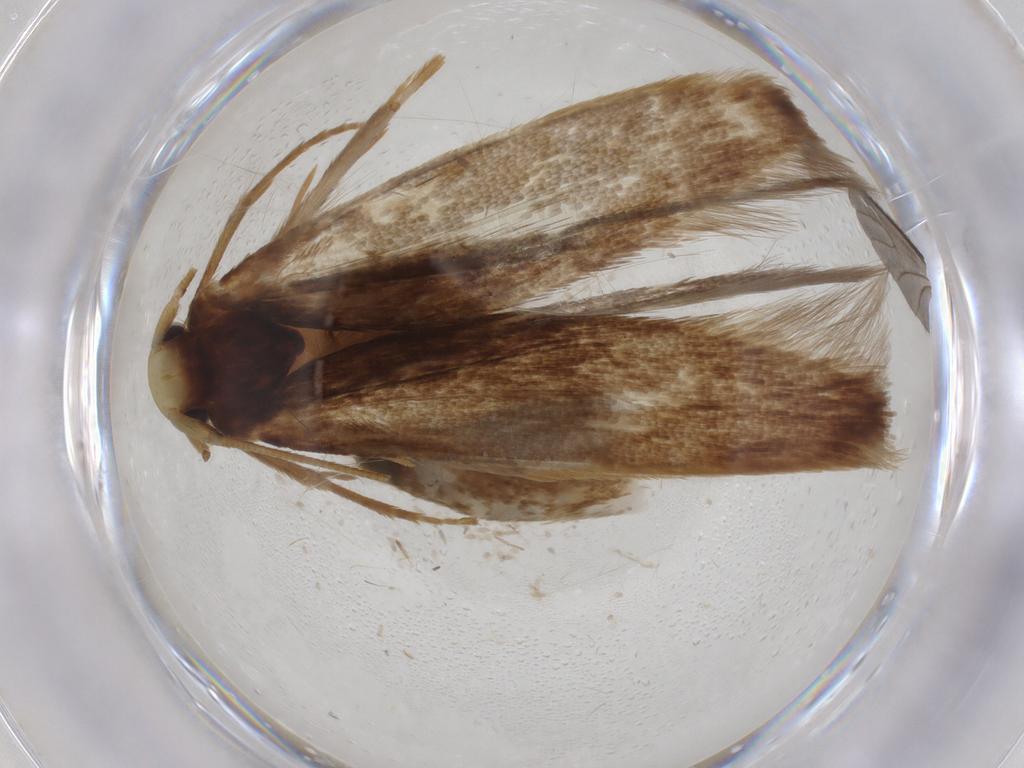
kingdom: Animalia
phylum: Arthropoda
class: Insecta
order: Lepidoptera
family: Tineidae
